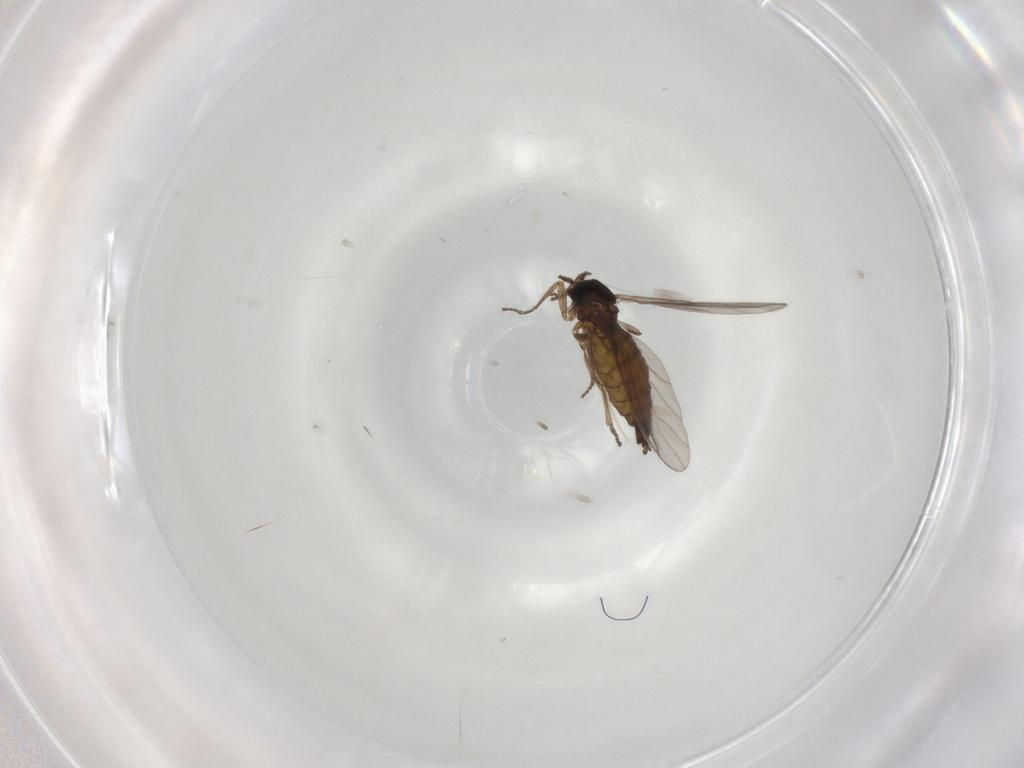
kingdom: Animalia
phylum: Arthropoda
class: Insecta
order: Diptera
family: Sciaridae
